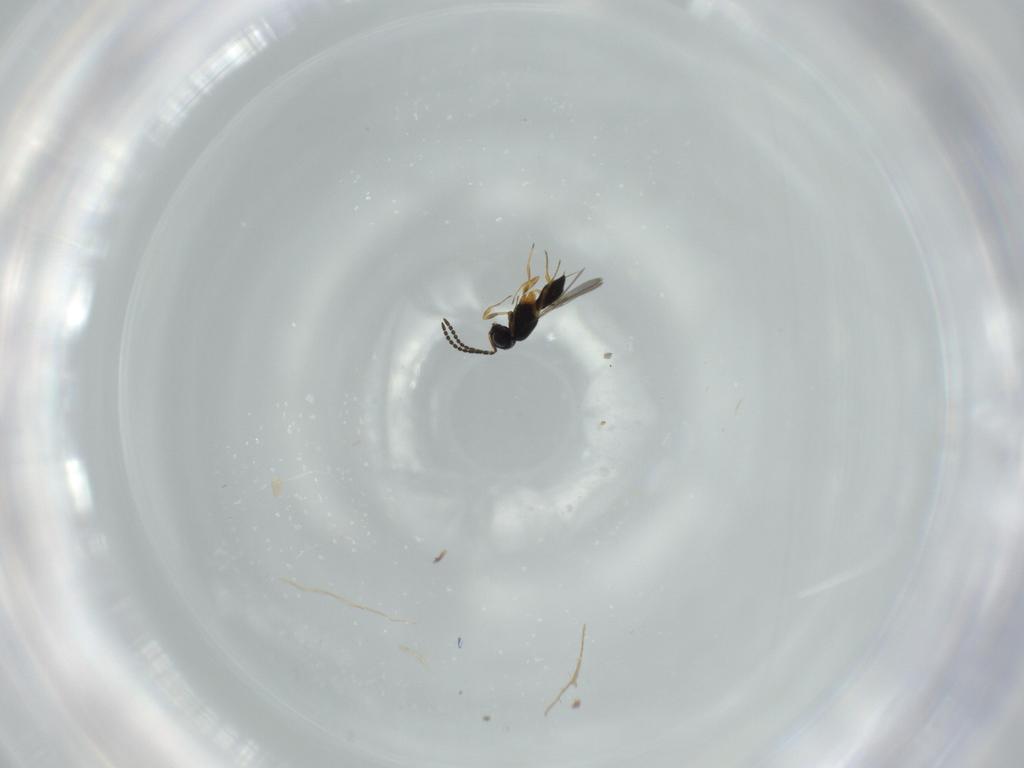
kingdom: Animalia
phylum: Arthropoda
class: Insecta
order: Hymenoptera
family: Scelionidae
